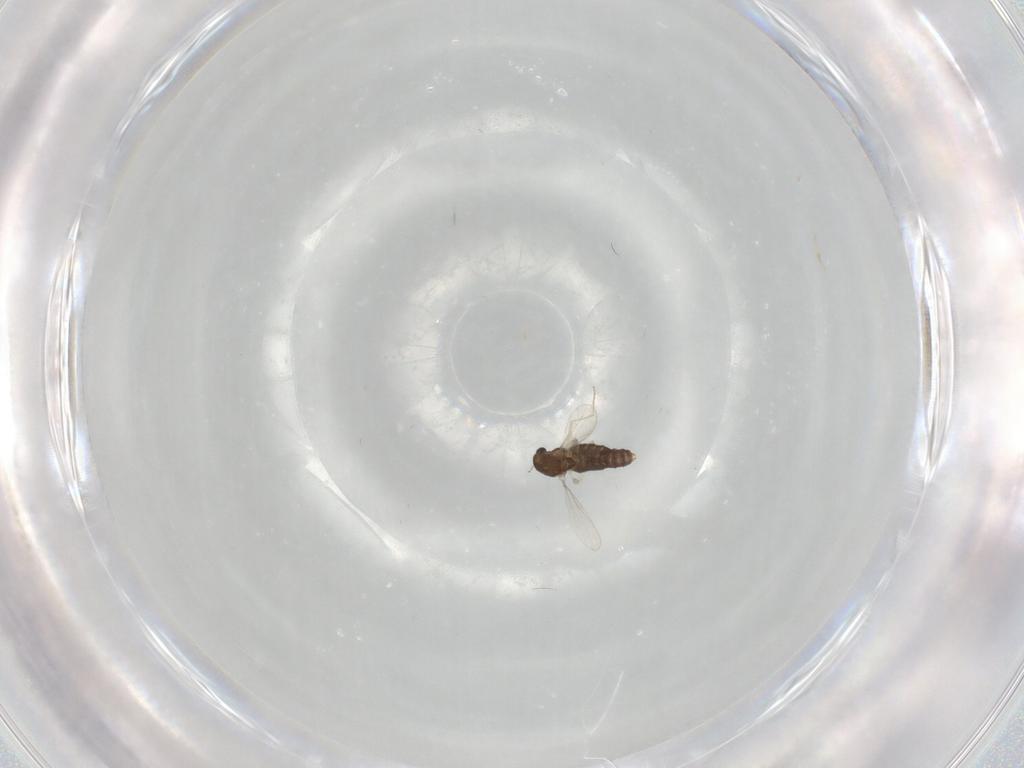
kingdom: Animalia
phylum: Arthropoda
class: Insecta
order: Diptera
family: Chironomidae
